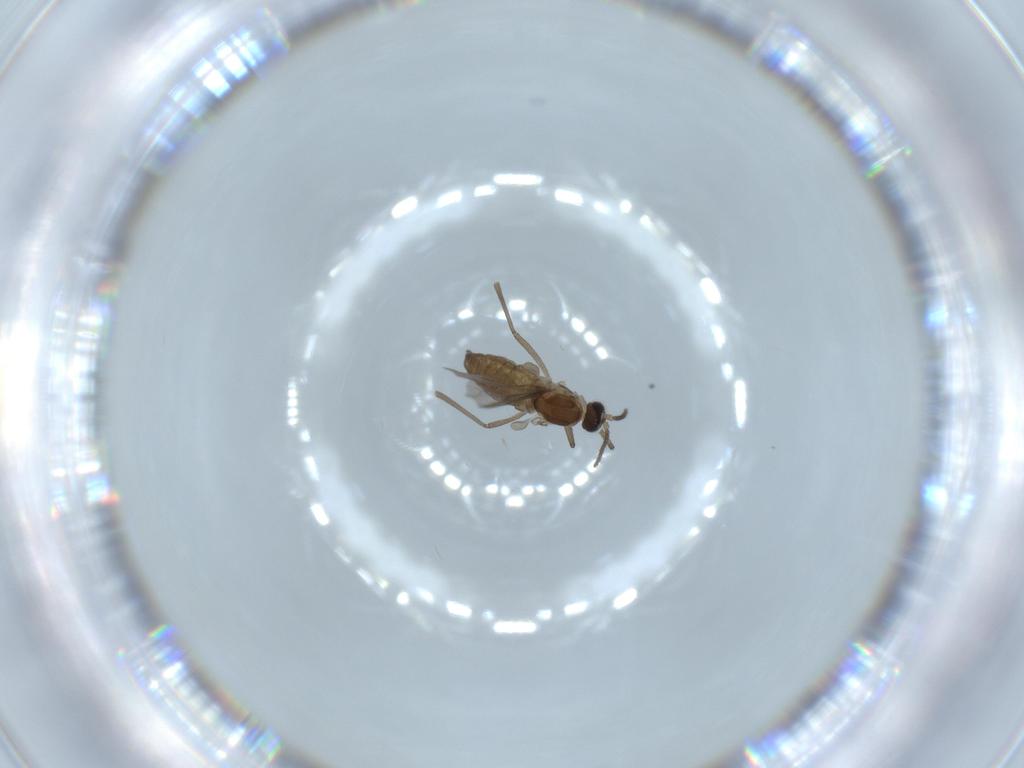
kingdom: Animalia
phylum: Arthropoda
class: Insecta
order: Diptera
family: Phoridae
